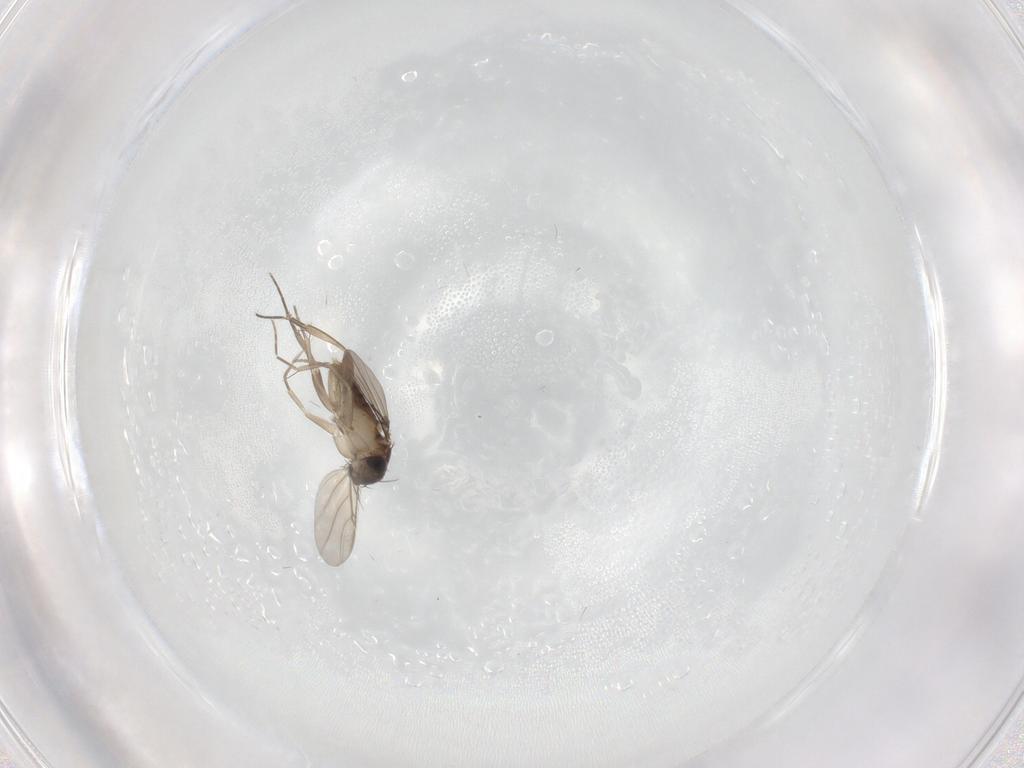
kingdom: Animalia
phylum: Arthropoda
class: Insecta
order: Diptera
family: Phoridae
